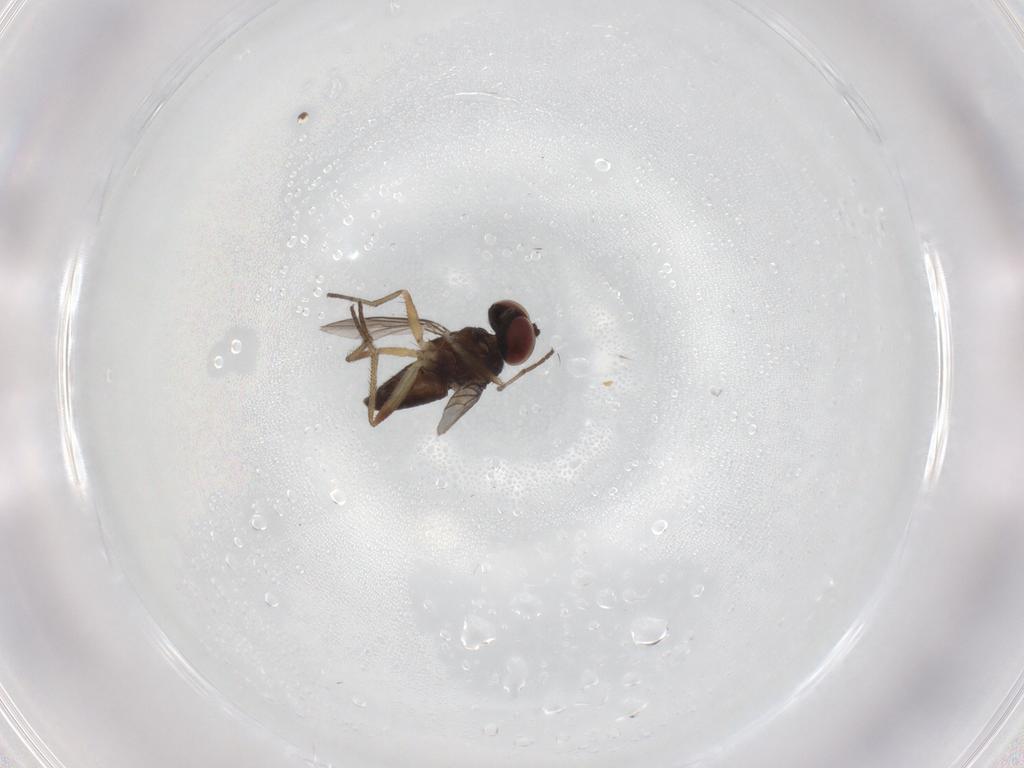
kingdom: Animalia
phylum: Arthropoda
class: Insecta
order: Diptera
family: Dolichopodidae
